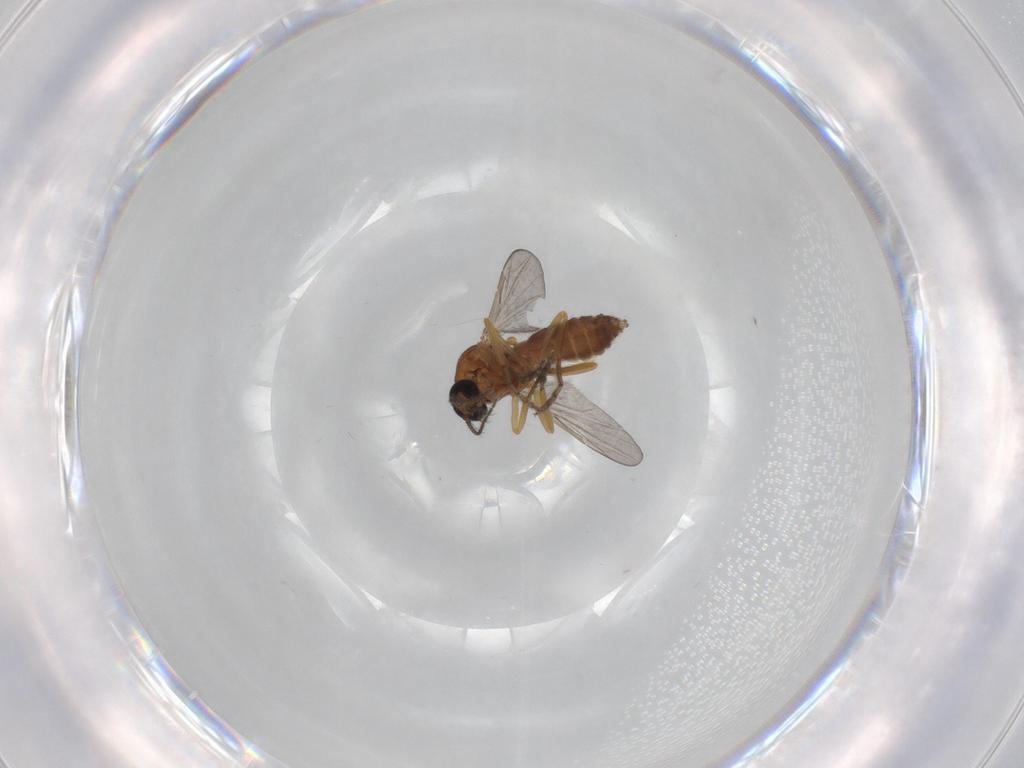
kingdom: Animalia
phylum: Arthropoda
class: Insecta
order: Diptera
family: Ceratopogonidae
